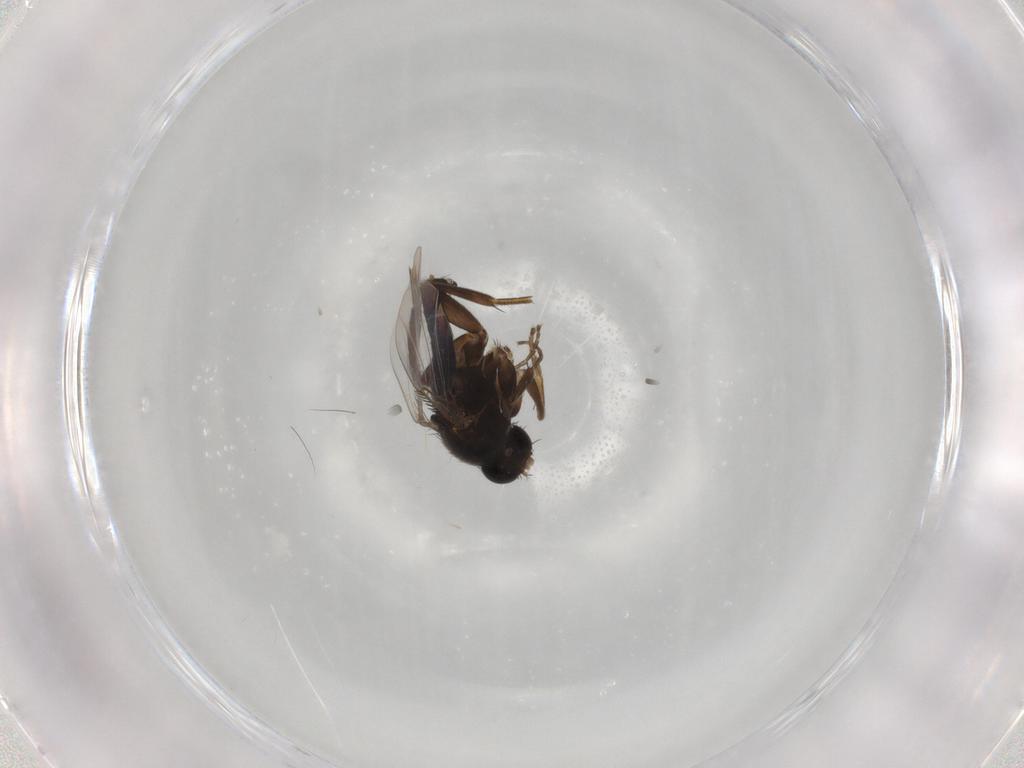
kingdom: Animalia
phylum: Arthropoda
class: Insecta
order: Diptera
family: Phoridae
